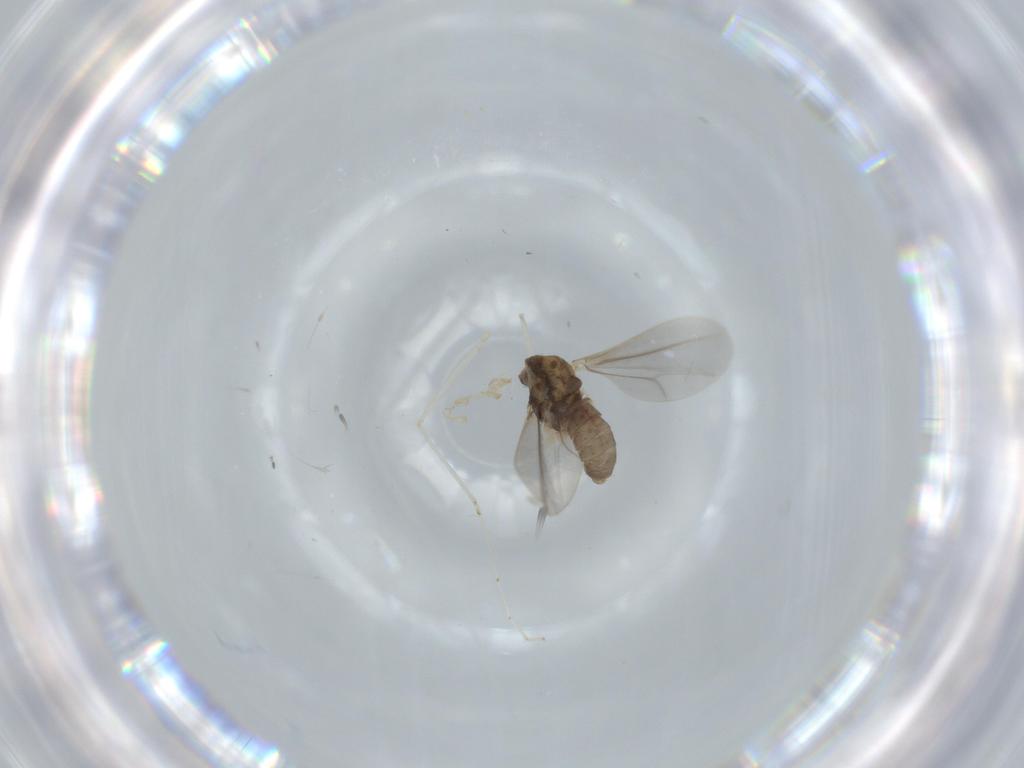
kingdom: Animalia
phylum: Arthropoda
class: Insecta
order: Diptera
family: Cecidomyiidae
